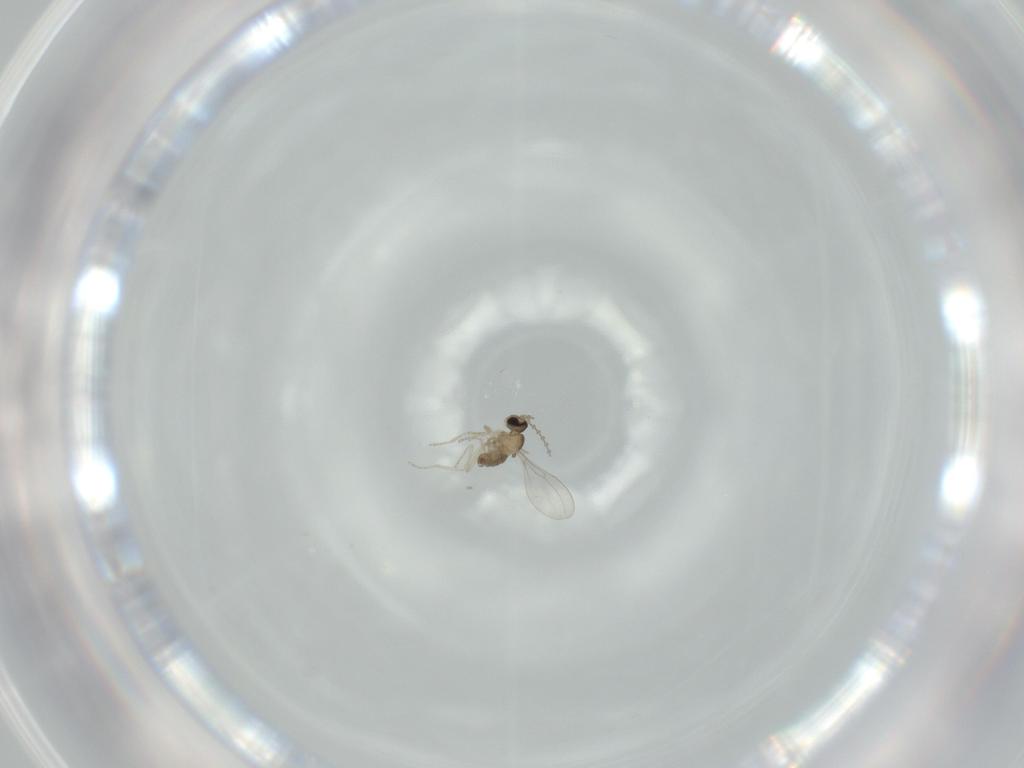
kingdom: Animalia
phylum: Arthropoda
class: Insecta
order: Diptera
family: Cecidomyiidae
